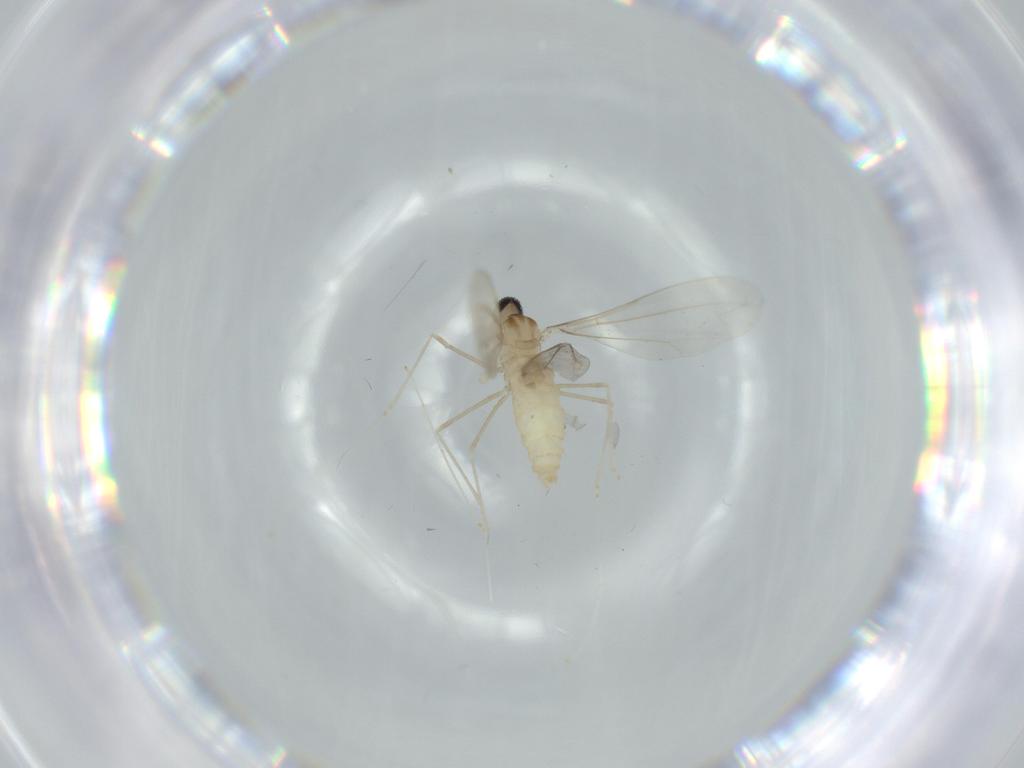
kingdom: Animalia
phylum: Arthropoda
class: Insecta
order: Diptera
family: Cecidomyiidae
